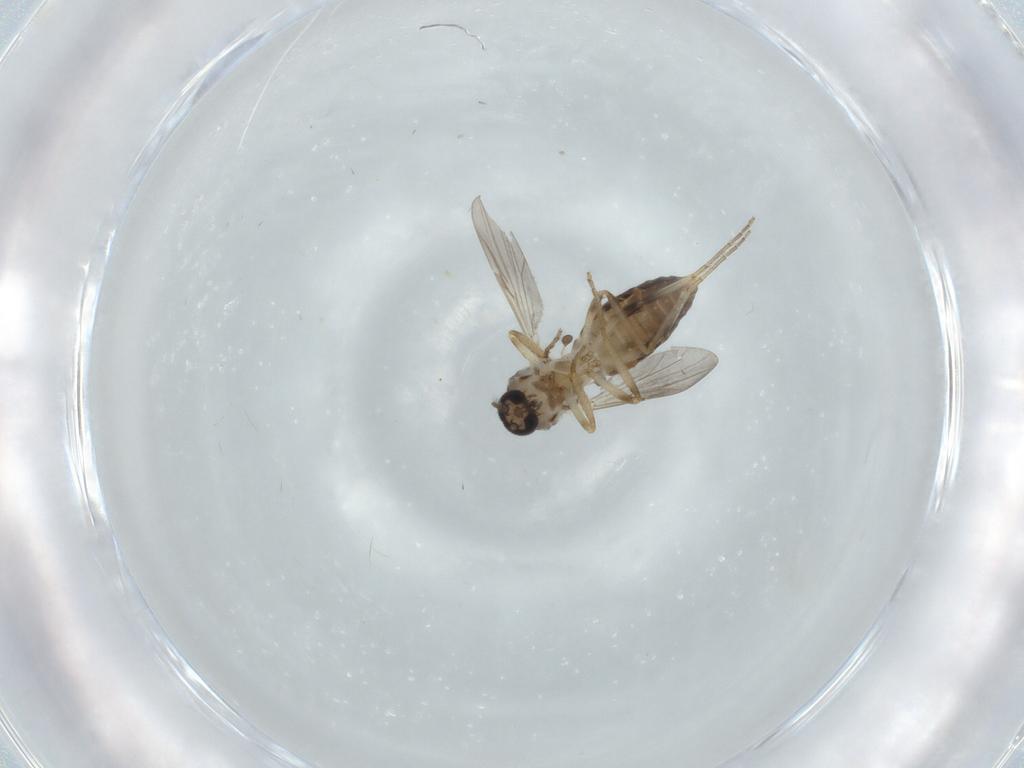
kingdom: Animalia
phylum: Arthropoda
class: Insecta
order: Diptera
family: Ceratopogonidae
